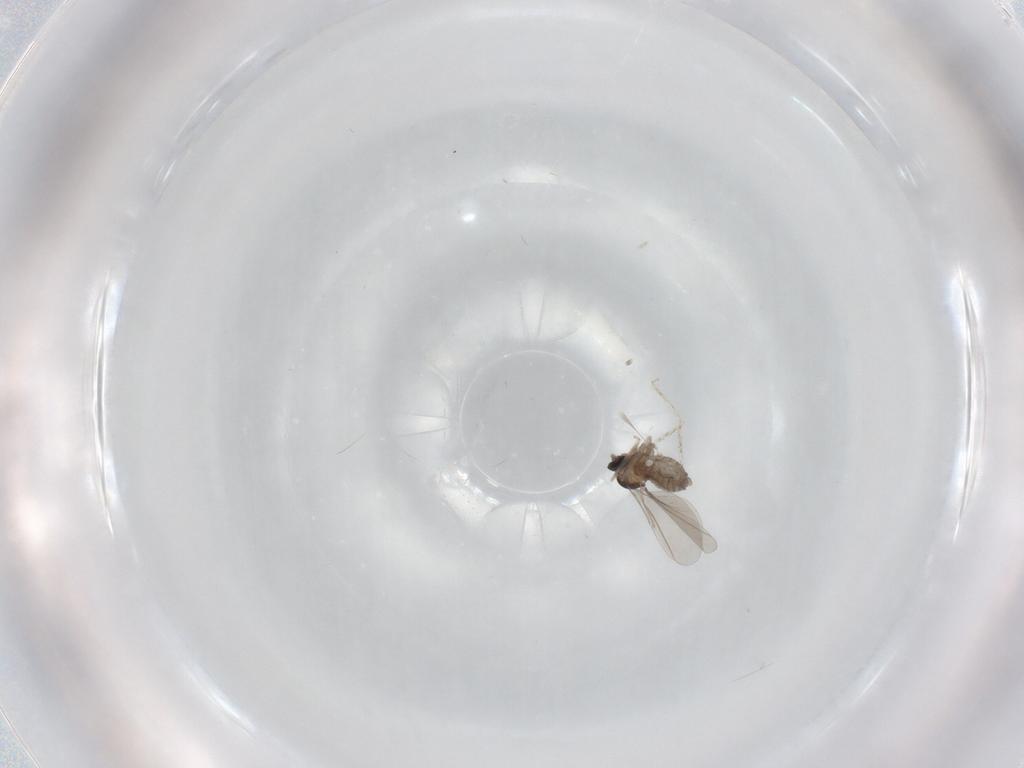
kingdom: Animalia
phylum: Arthropoda
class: Insecta
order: Diptera
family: Cecidomyiidae
